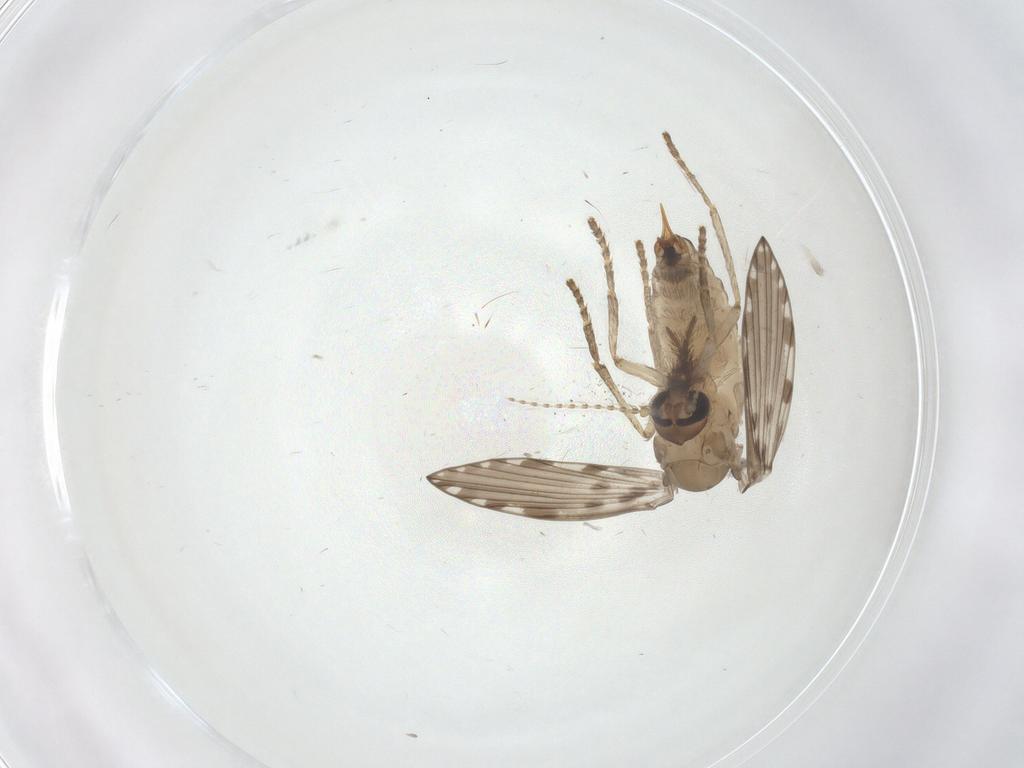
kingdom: Animalia
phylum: Arthropoda
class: Insecta
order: Diptera
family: Psychodidae
